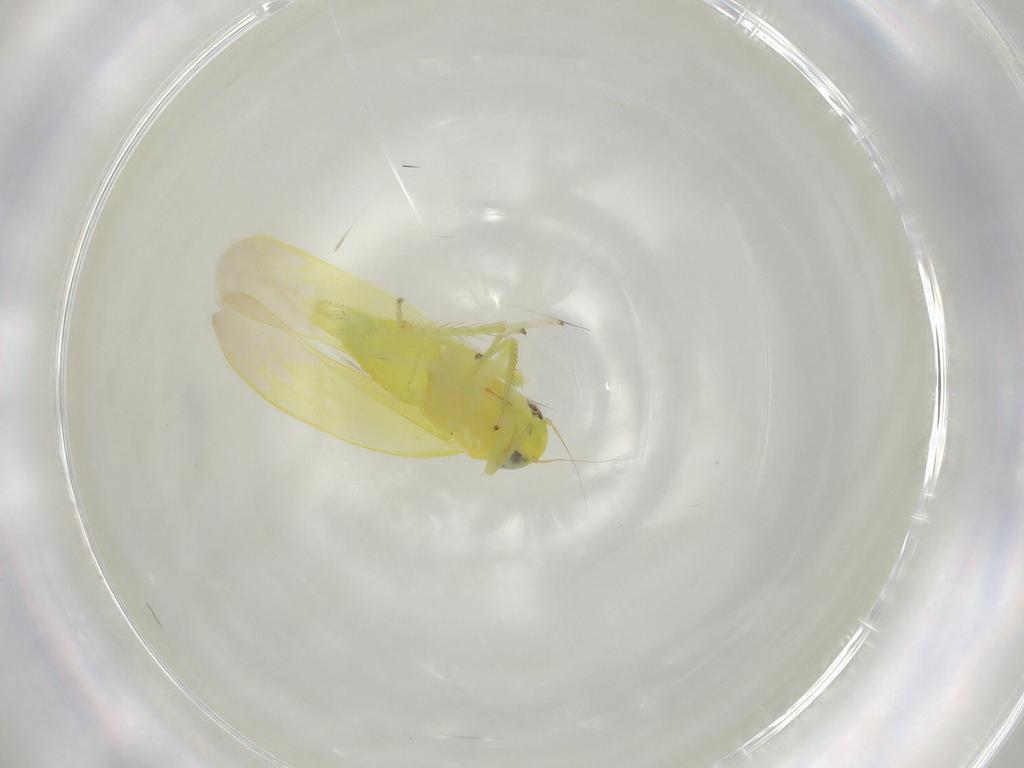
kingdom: Animalia
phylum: Arthropoda
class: Insecta
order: Hemiptera
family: Cicadellidae
